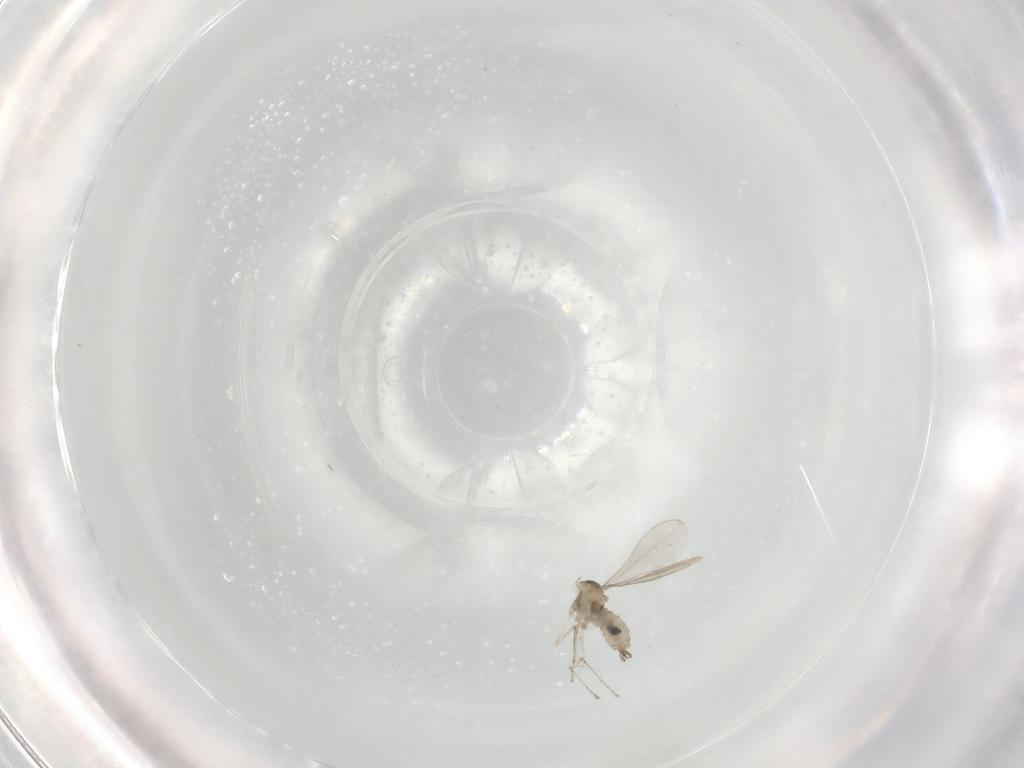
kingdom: Animalia
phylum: Arthropoda
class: Insecta
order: Diptera
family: Cecidomyiidae
